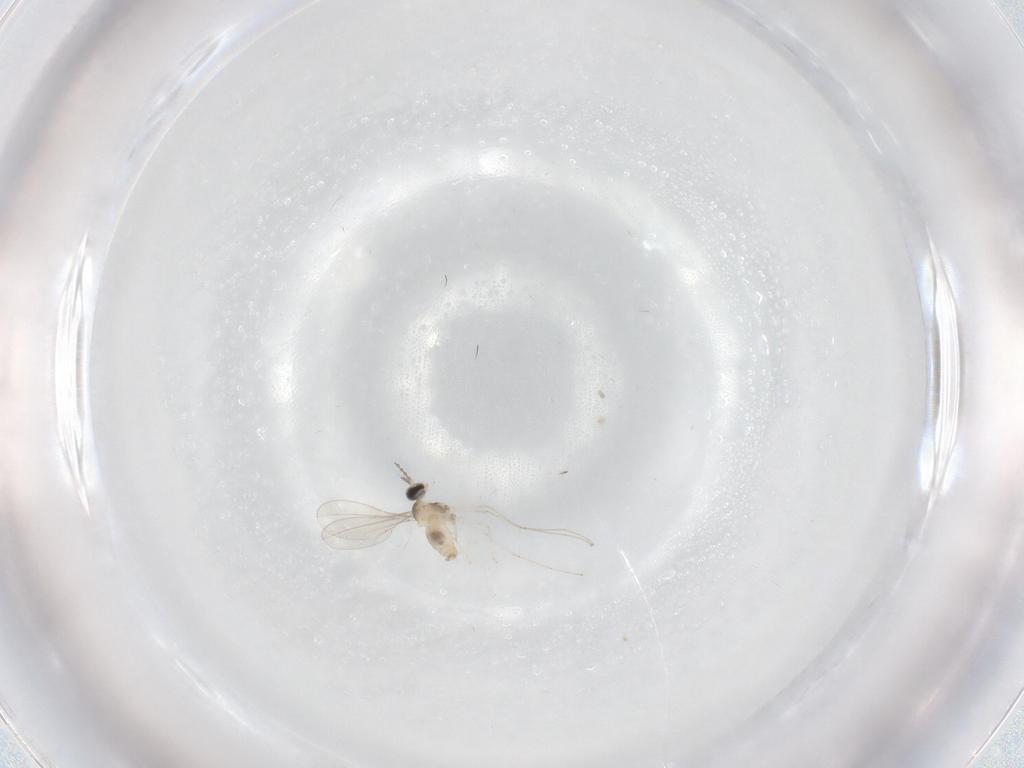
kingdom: Animalia
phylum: Arthropoda
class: Insecta
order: Diptera
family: Cecidomyiidae
